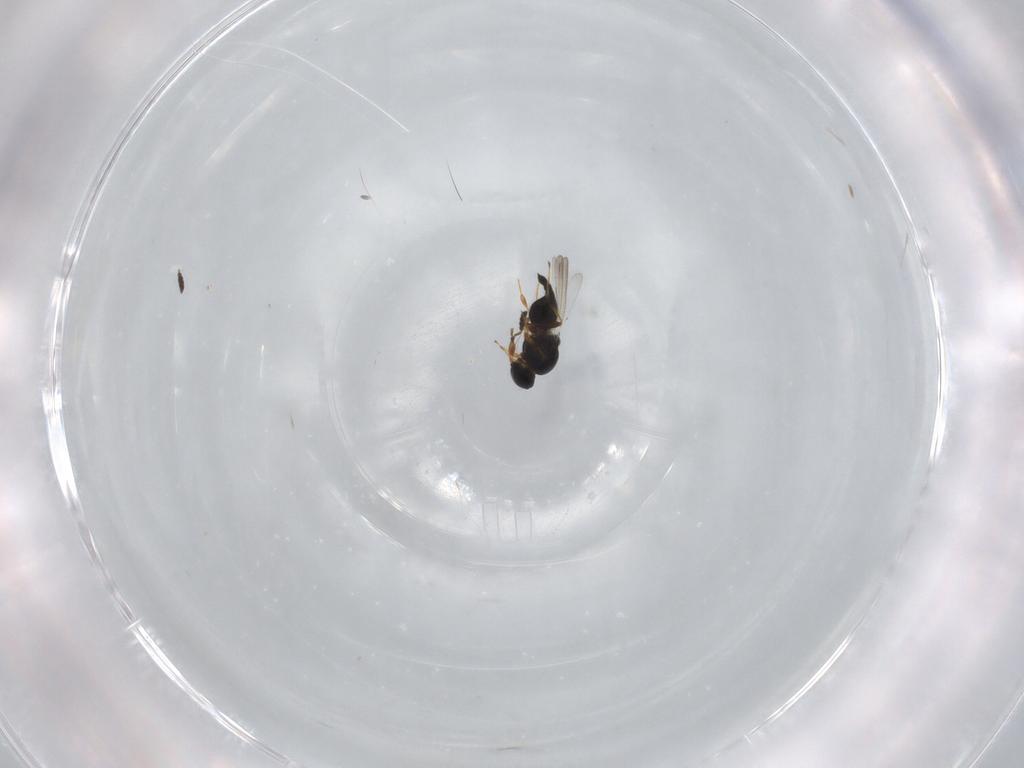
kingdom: Animalia
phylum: Arthropoda
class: Insecta
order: Hymenoptera
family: Platygastridae
